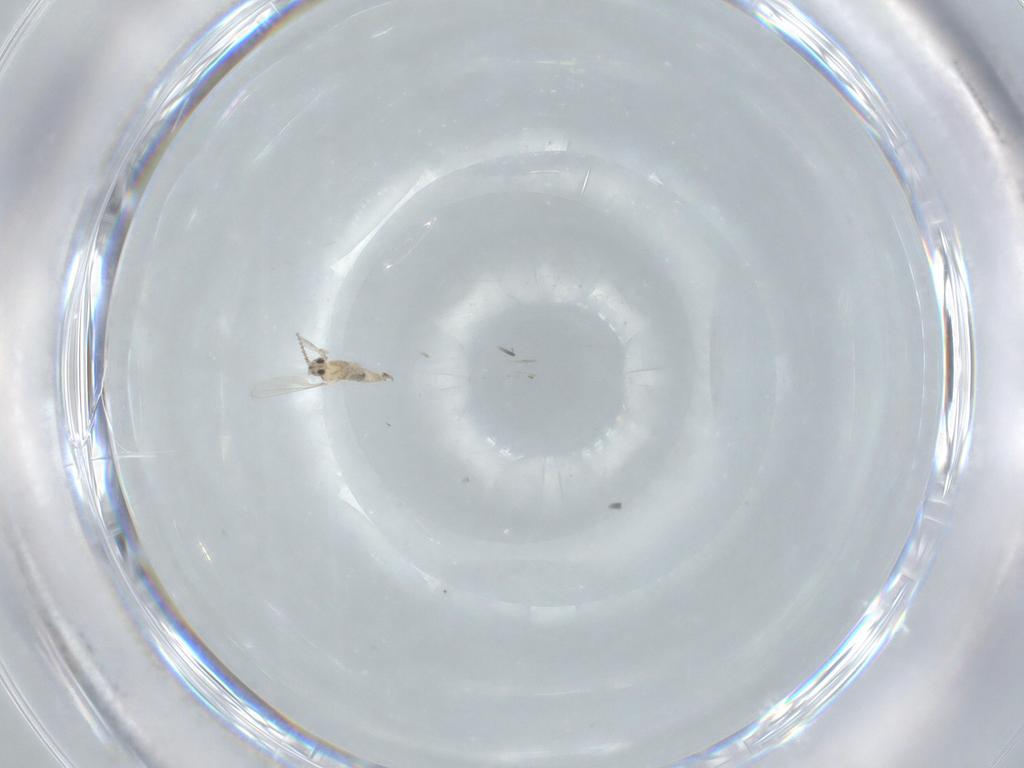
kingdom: Animalia
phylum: Arthropoda
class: Insecta
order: Diptera
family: Cecidomyiidae
